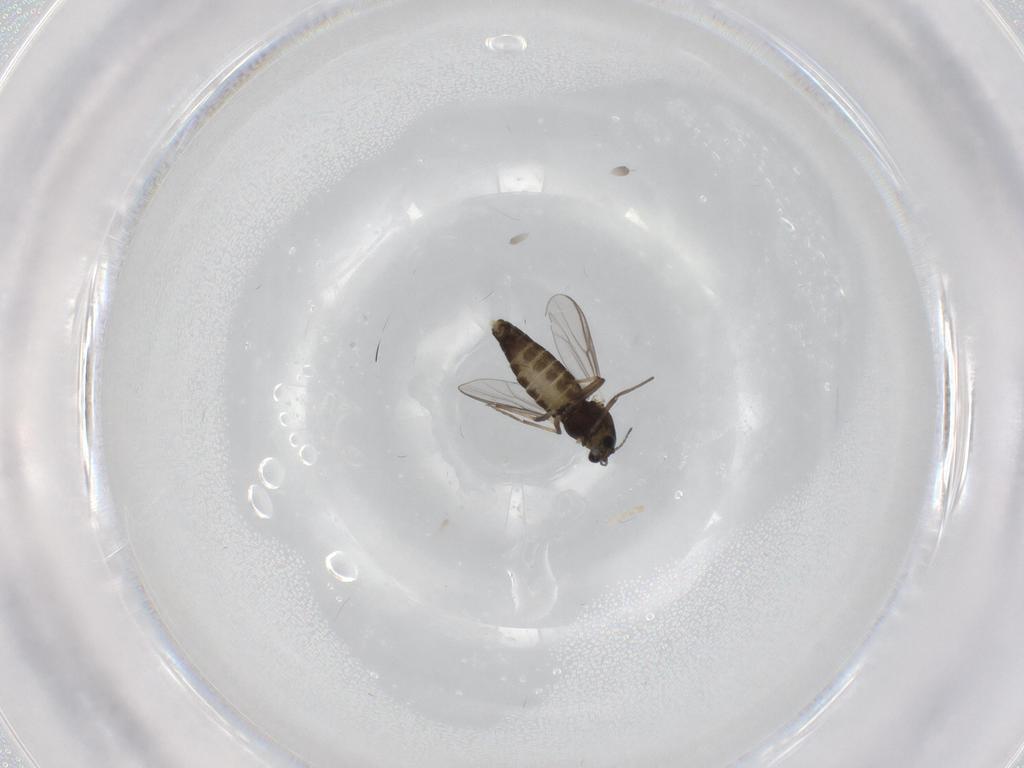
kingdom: Animalia
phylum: Arthropoda
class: Insecta
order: Diptera
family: Chironomidae
